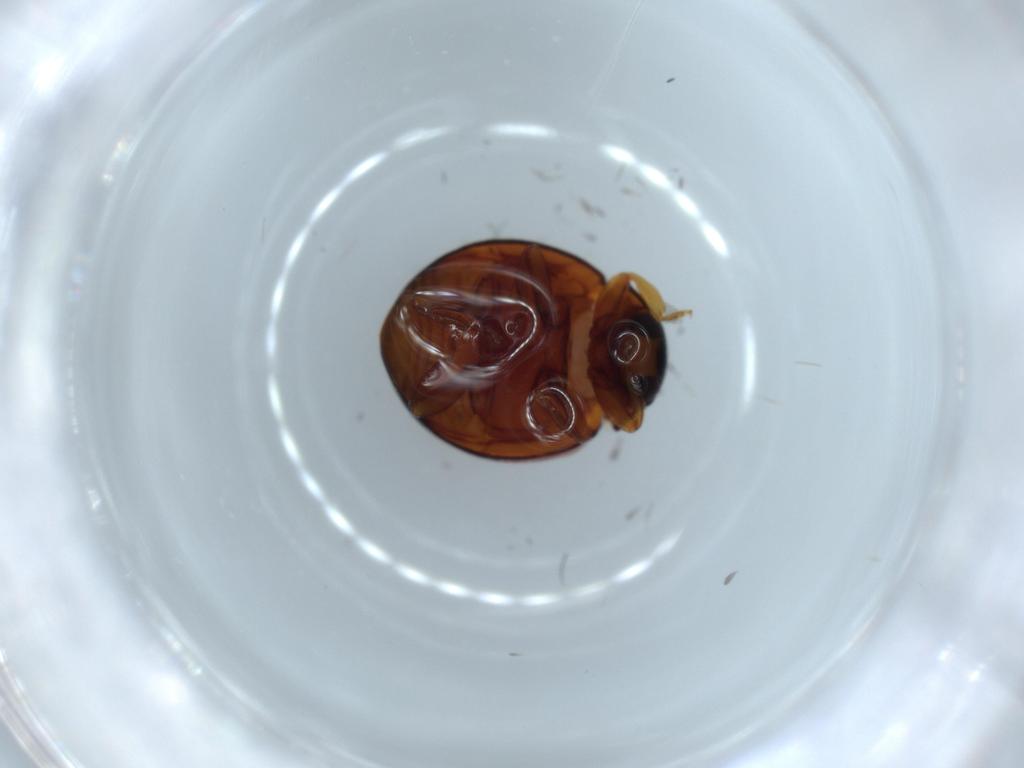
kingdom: Animalia
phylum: Arthropoda
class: Insecta
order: Coleoptera
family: Coccinellidae
